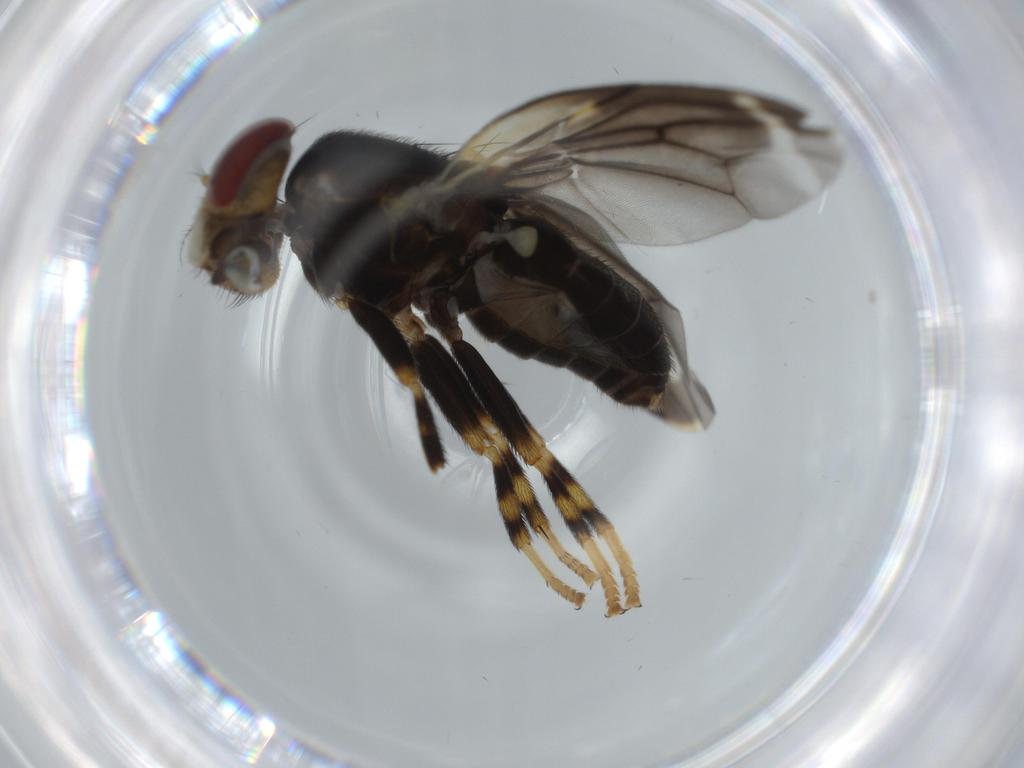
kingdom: Animalia
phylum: Arthropoda
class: Insecta
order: Diptera
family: Periscelididae
